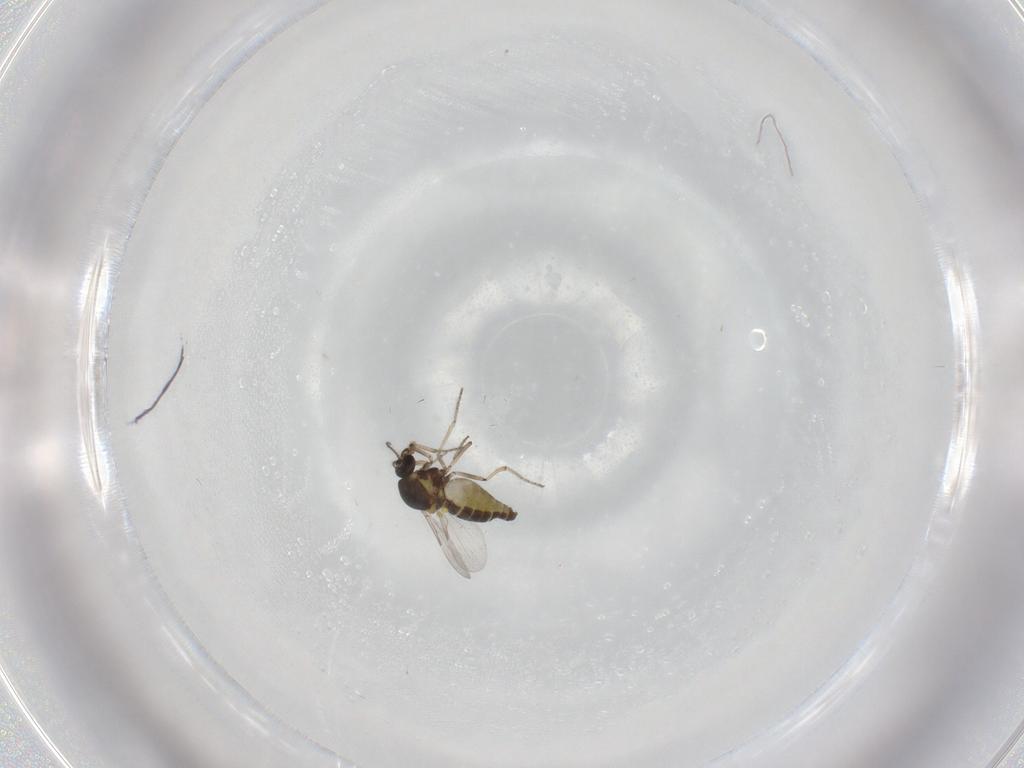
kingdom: Animalia
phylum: Arthropoda
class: Insecta
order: Diptera
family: Ceratopogonidae
